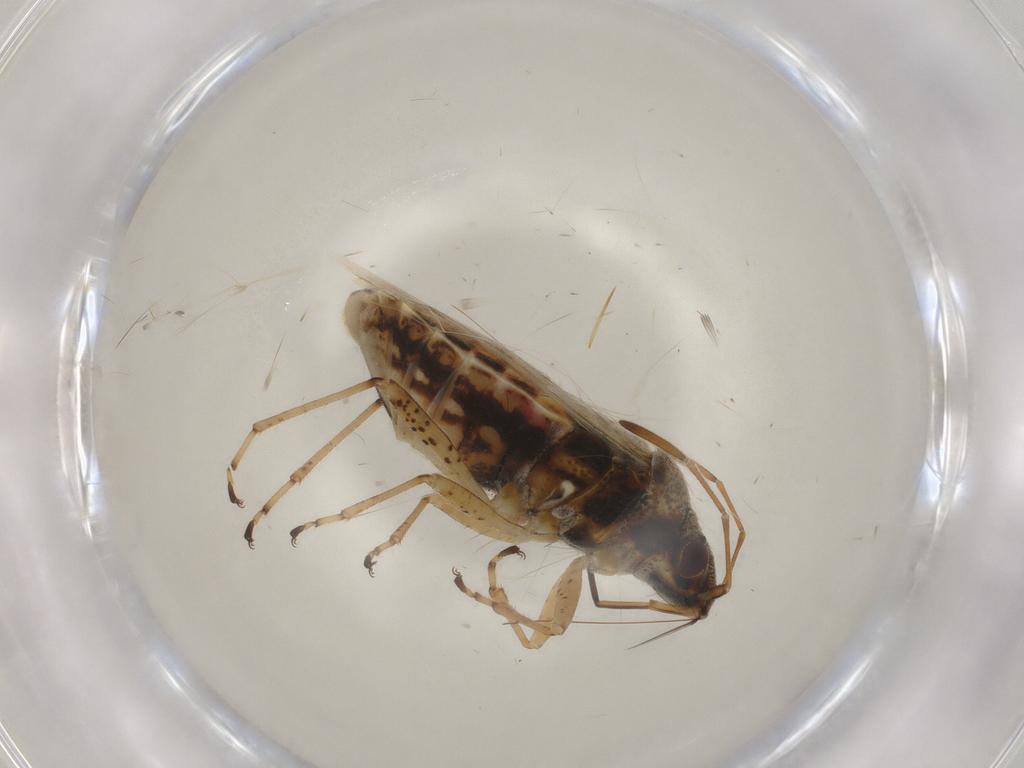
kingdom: Animalia
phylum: Arthropoda
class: Insecta
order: Hemiptera
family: Lygaeidae
